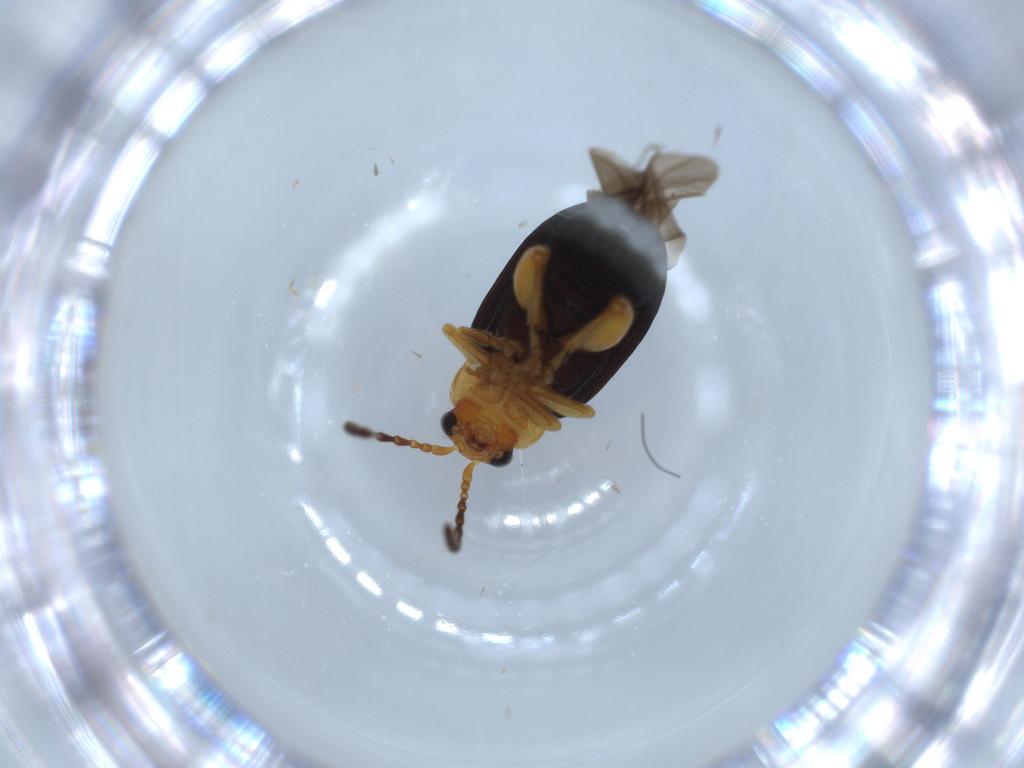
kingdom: Animalia
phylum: Arthropoda
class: Insecta
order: Coleoptera
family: Chrysomelidae
